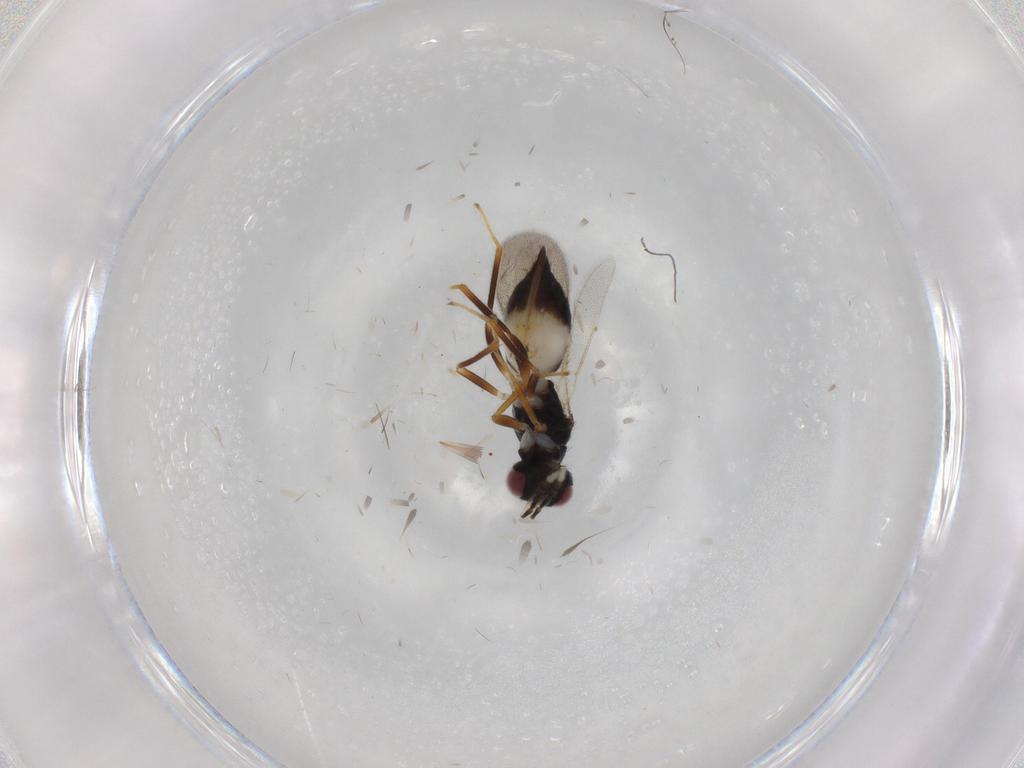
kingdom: Animalia
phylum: Arthropoda
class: Insecta
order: Hymenoptera
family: Eulophidae
